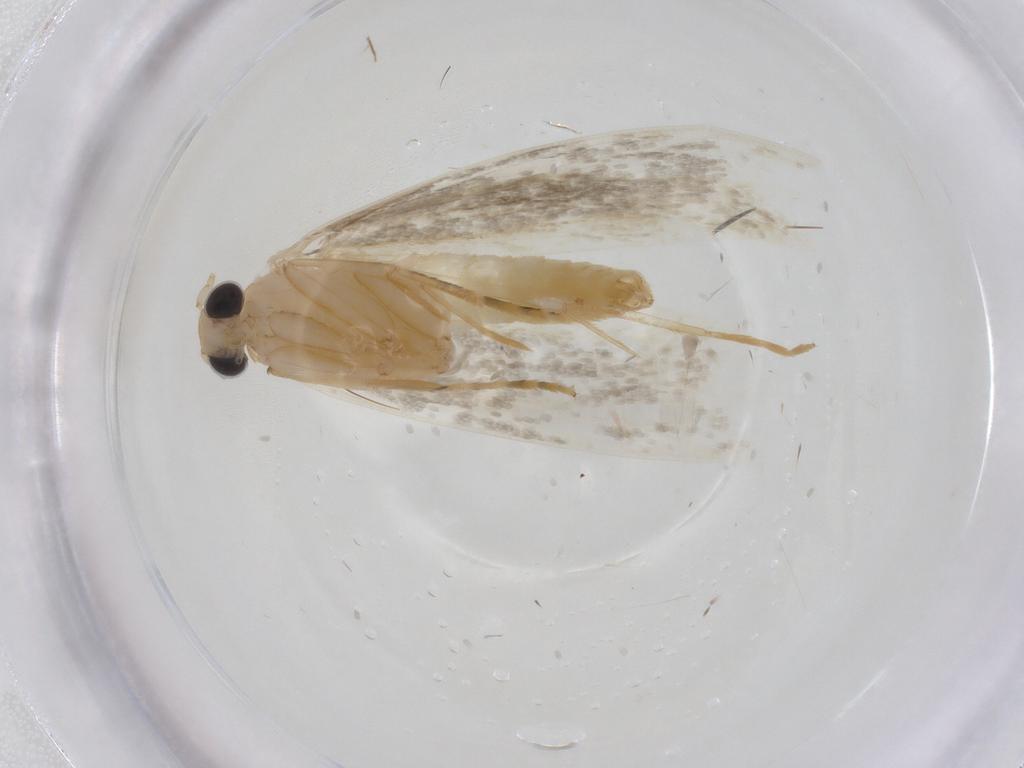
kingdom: Animalia
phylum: Arthropoda
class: Insecta
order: Lepidoptera
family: Tineidae
